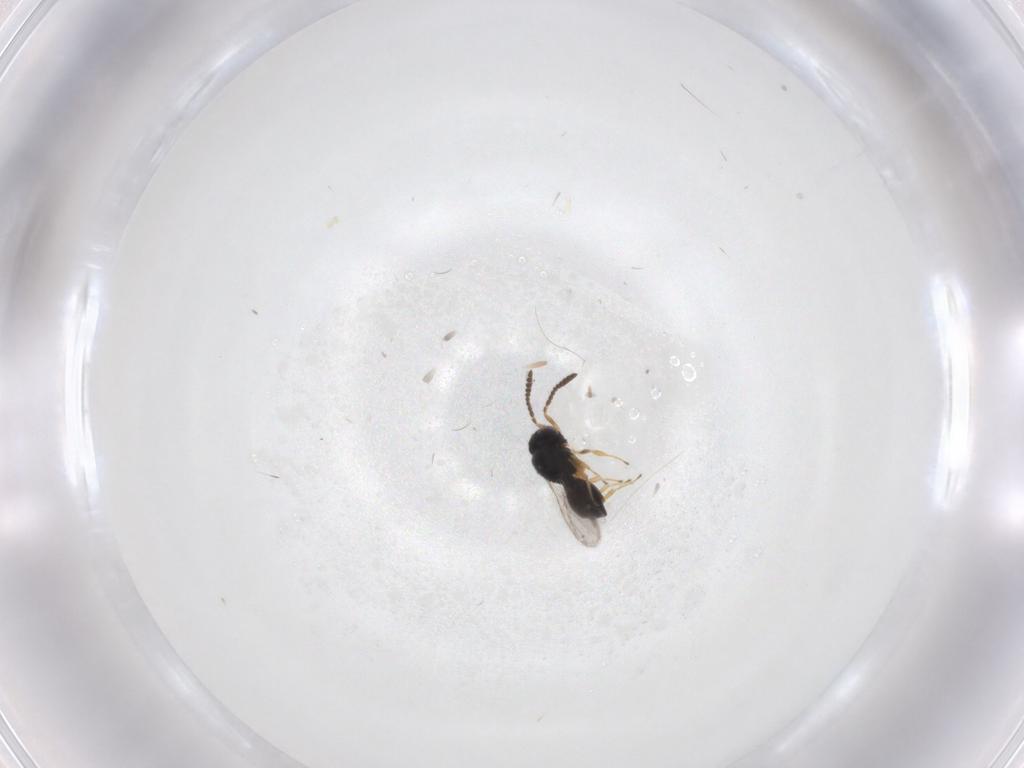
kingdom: Animalia
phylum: Arthropoda
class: Insecta
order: Hymenoptera
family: Scelionidae
